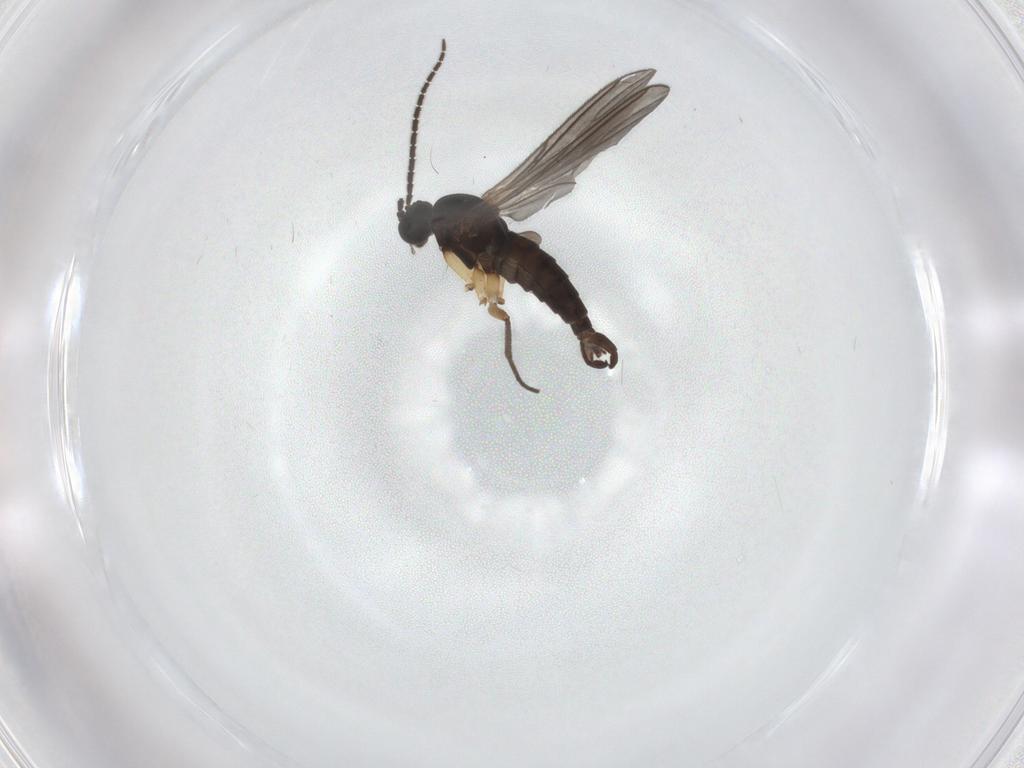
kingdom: Animalia
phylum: Arthropoda
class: Insecta
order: Diptera
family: Sciaridae
